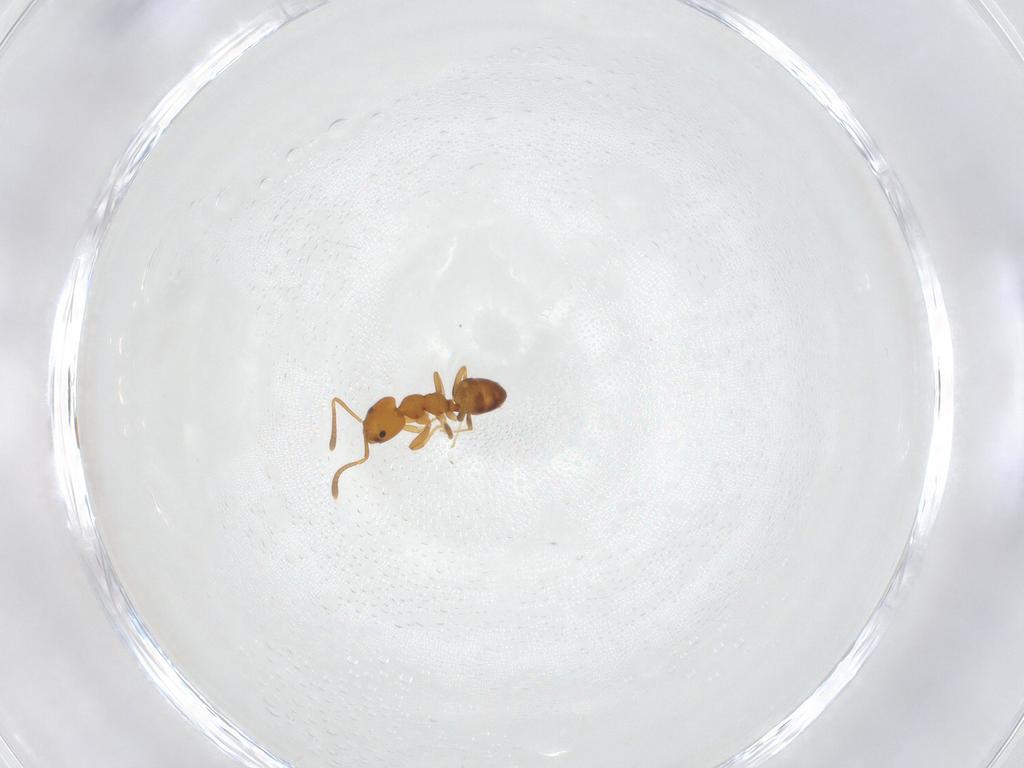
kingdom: Animalia
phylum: Arthropoda
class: Insecta
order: Hymenoptera
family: Formicidae
